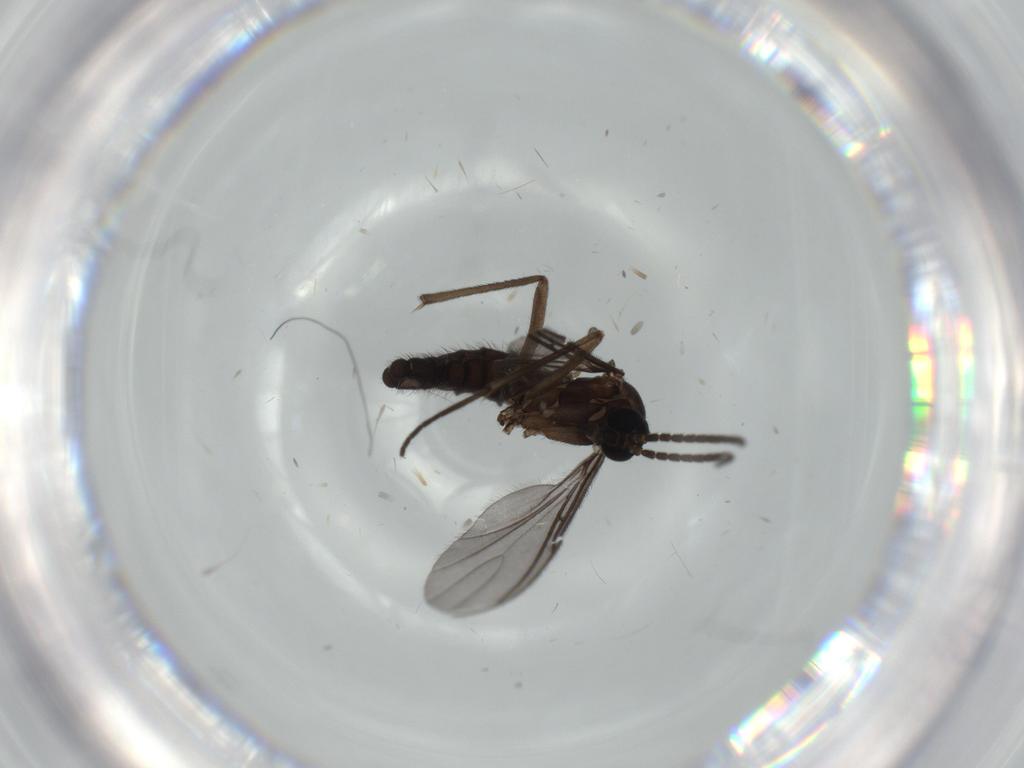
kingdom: Animalia
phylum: Arthropoda
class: Insecta
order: Diptera
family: Sciaridae
